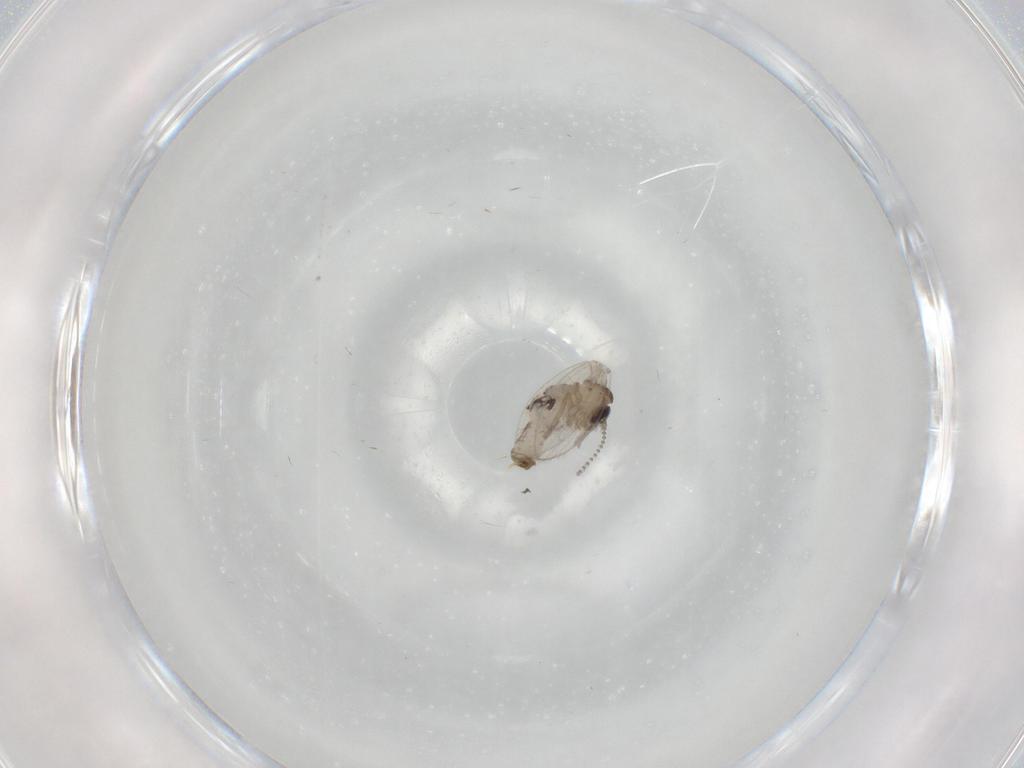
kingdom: Animalia
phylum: Arthropoda
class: Insecta
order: Diptera
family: Psychodidae
